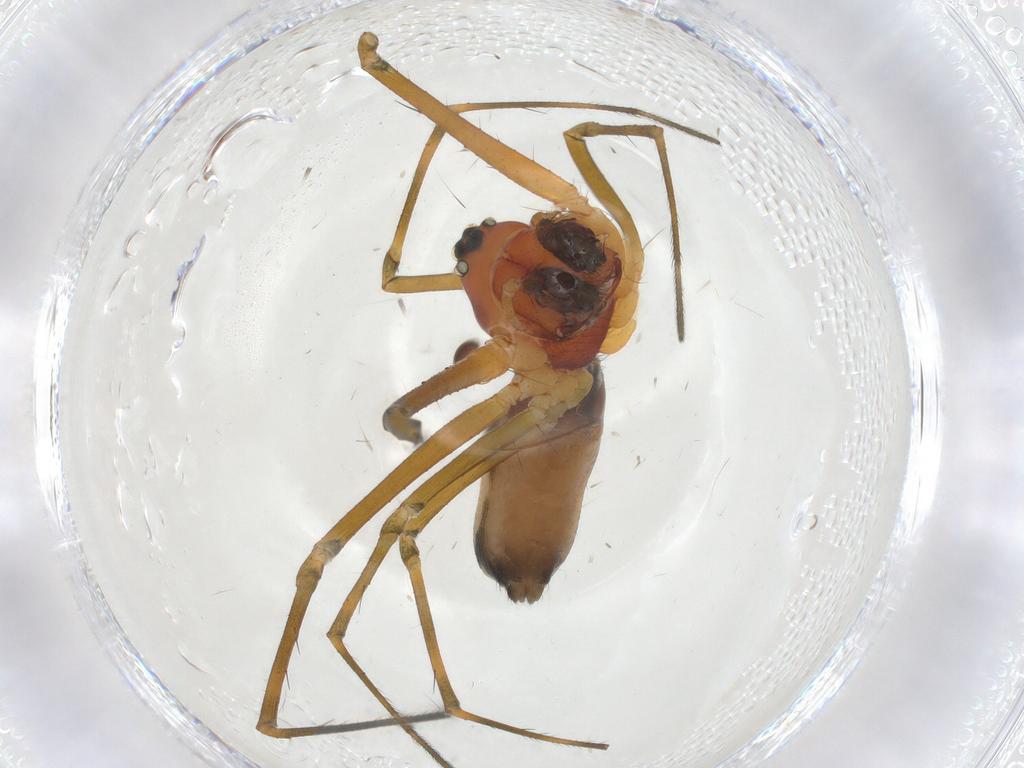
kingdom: Animalia
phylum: Arthropoda
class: Arachnida
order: Araneae
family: Linyphiidae
